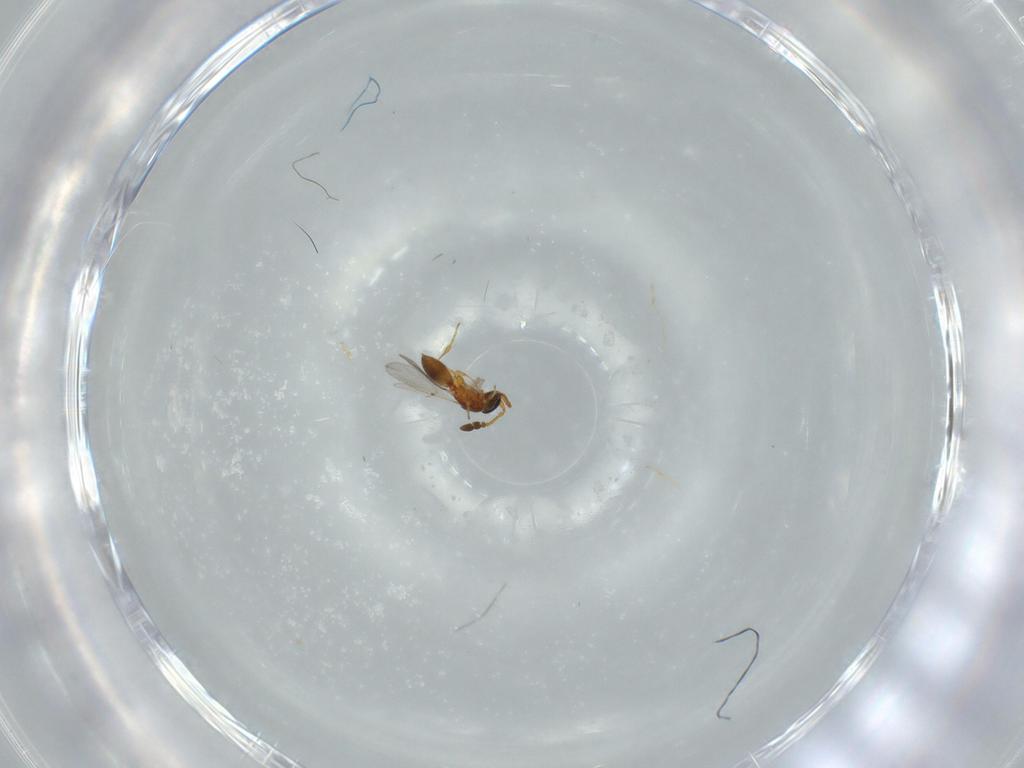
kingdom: Animalia
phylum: Arthropoda
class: Insecta
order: Hymenoptera
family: Diapriidae
